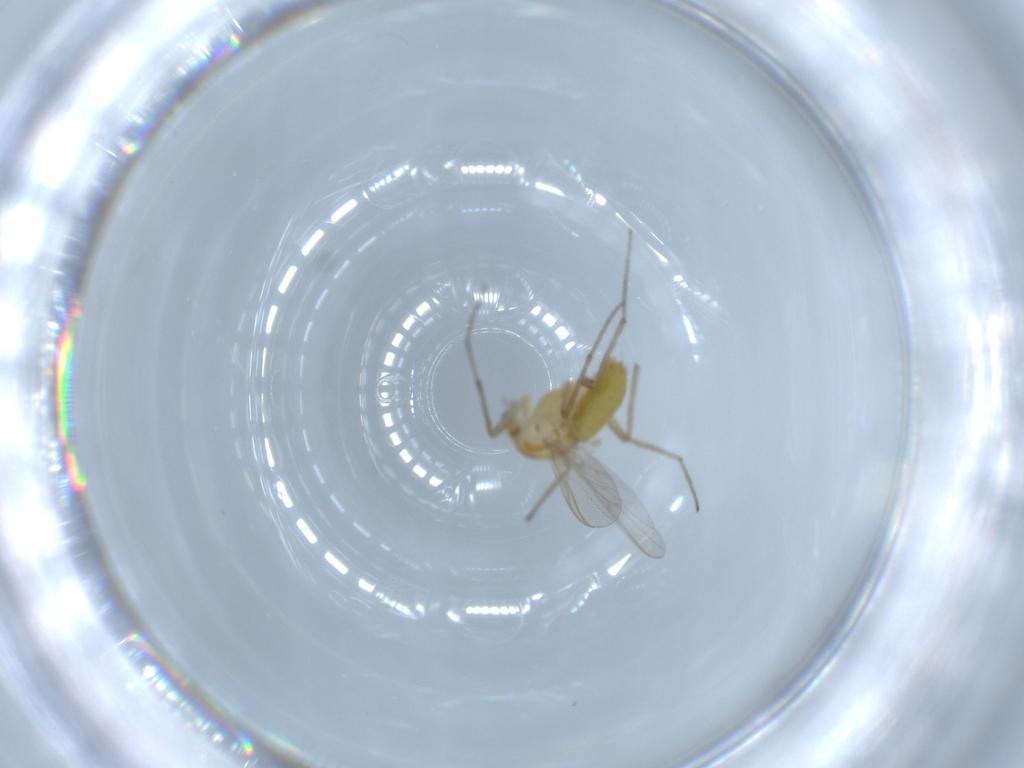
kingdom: Animalia
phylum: Arthropoda
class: Insecta
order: Diptera
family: Chironomidae
